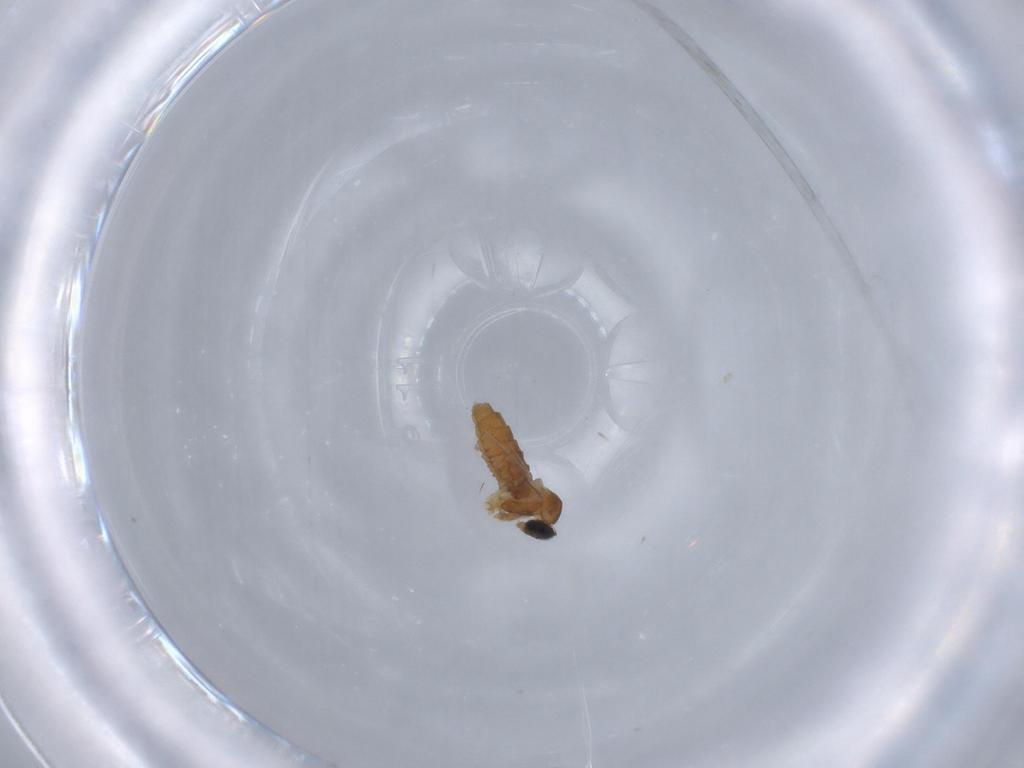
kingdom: Animalia
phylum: Arthropoda
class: Insecta
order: Diptera
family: Cecidomyiidae
